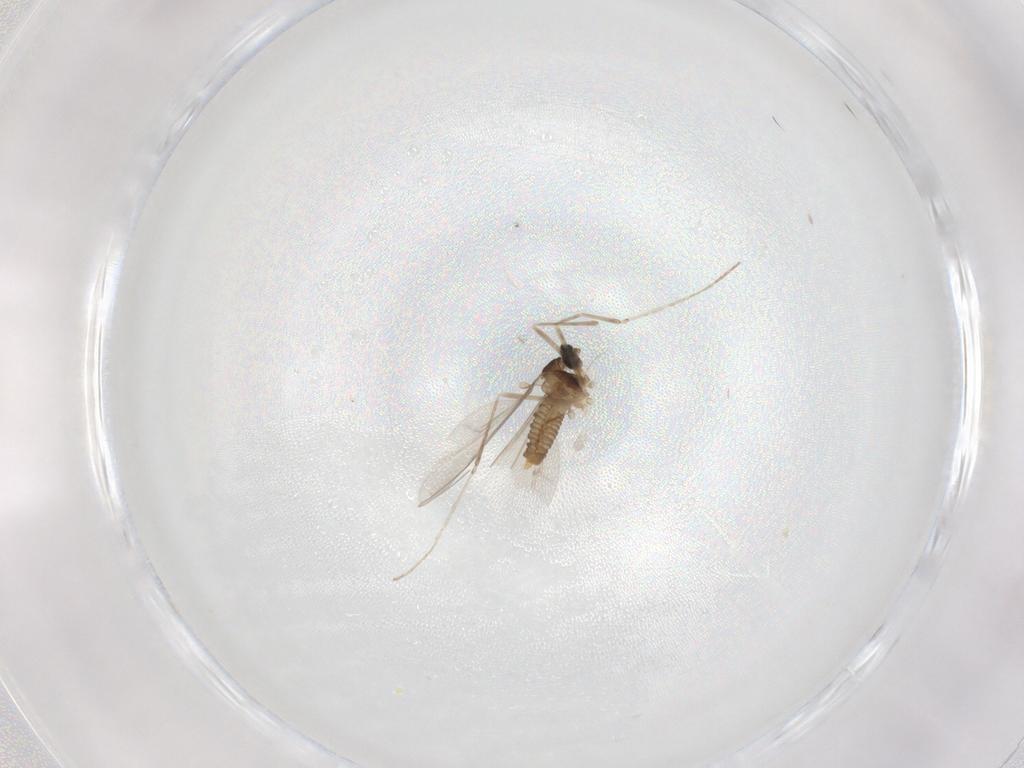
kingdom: Animalia
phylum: Arthropoda
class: Insecta
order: Diptera
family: Cecidomyiidae
